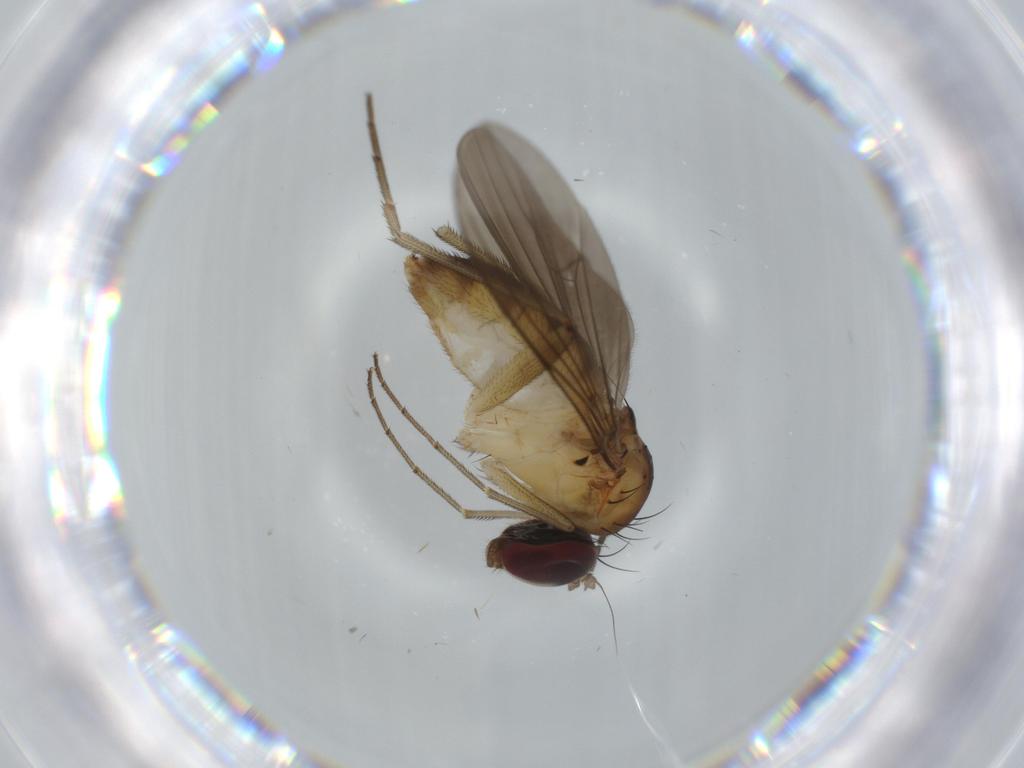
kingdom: Animalia
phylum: Arthropoda
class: Insecta
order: Diptera
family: Sciaridae
